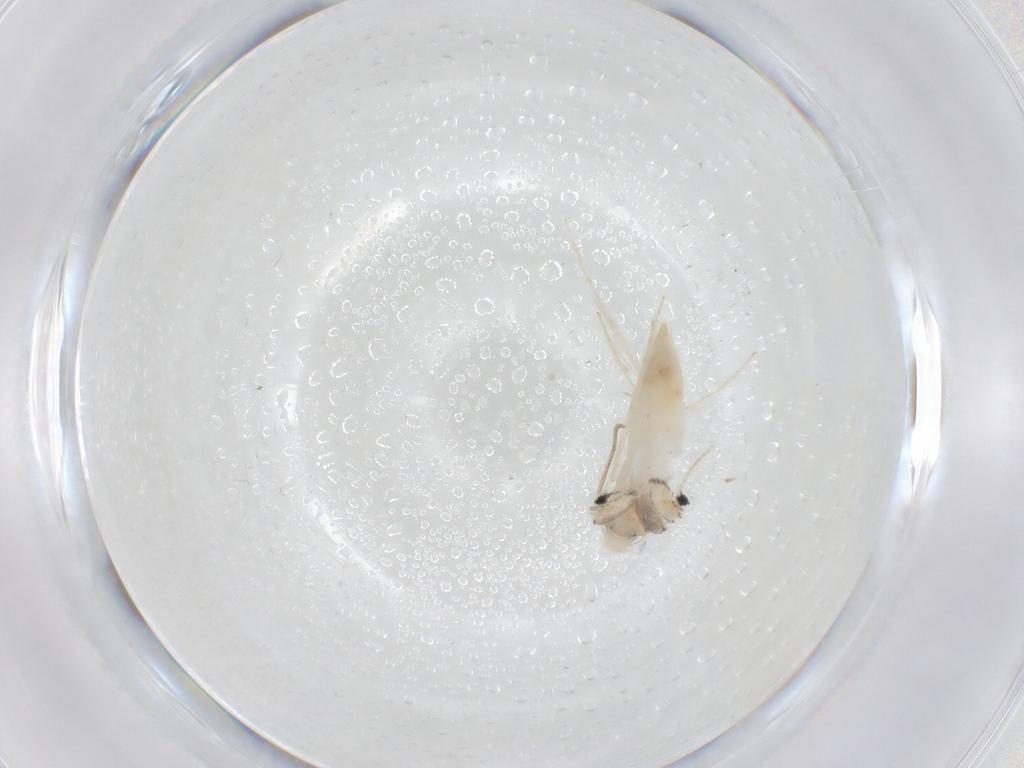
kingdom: Animalia
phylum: Arthropoda
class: Insecta
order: Lepidoptera
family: Gracillariidae
